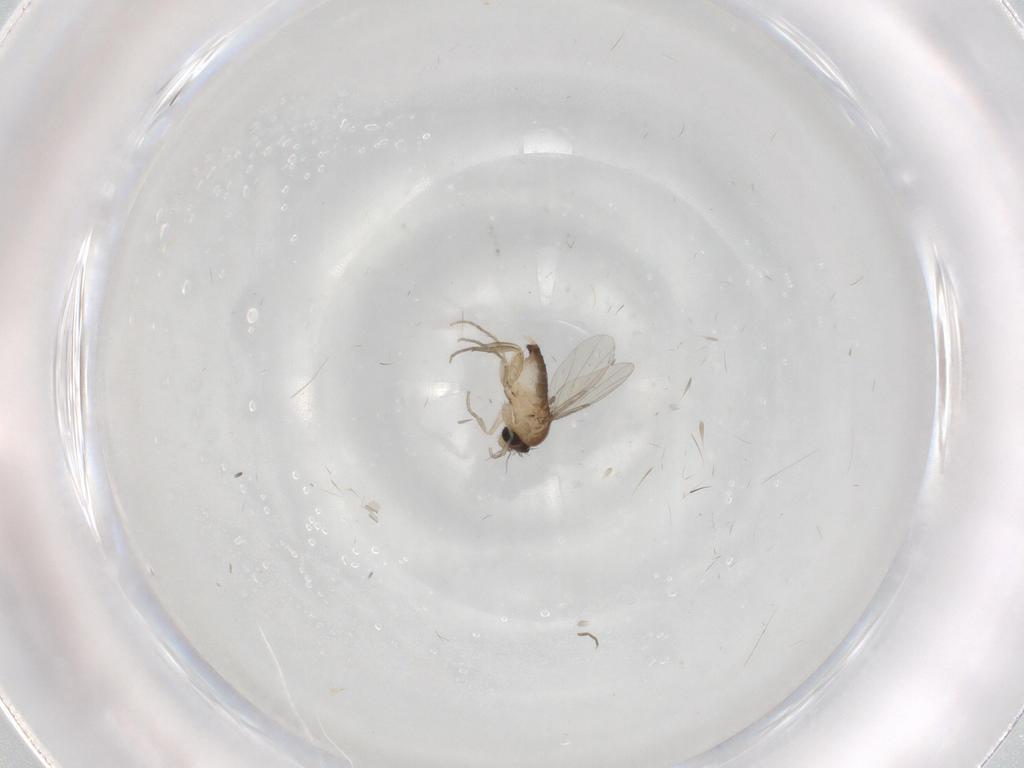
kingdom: Animalia
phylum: Arthropoda
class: Insecta
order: Diptera
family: Phoridae
